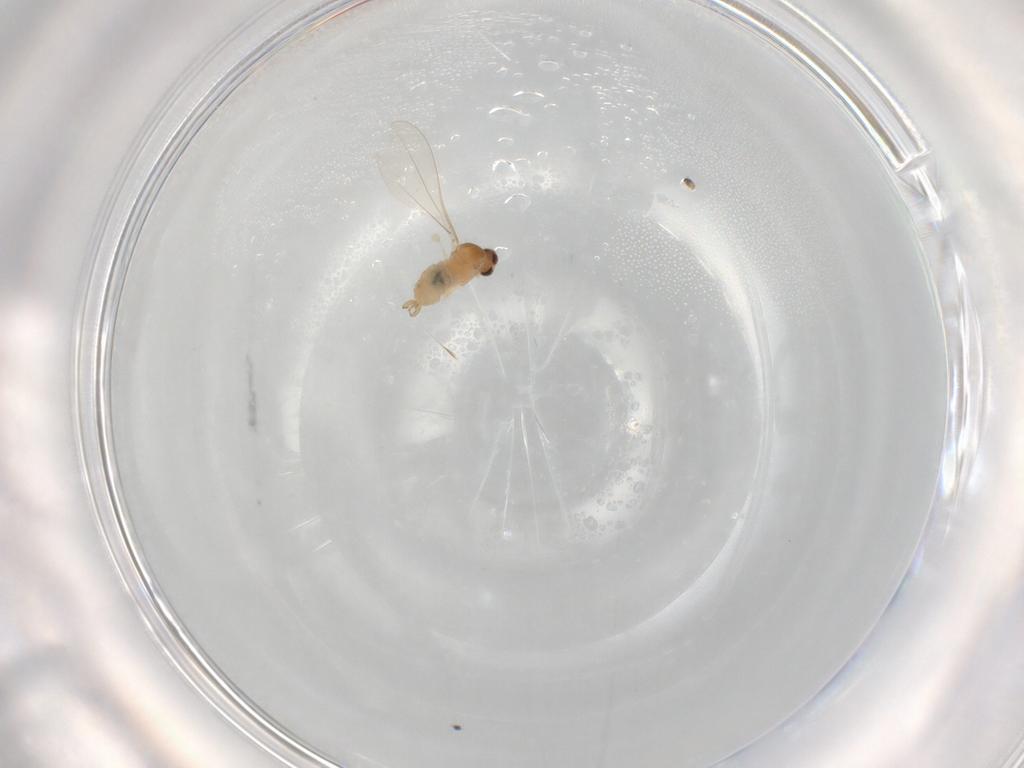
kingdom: Animalia
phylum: Arthropoda
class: Insecta
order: Diptera
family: Cecidomyiidae
